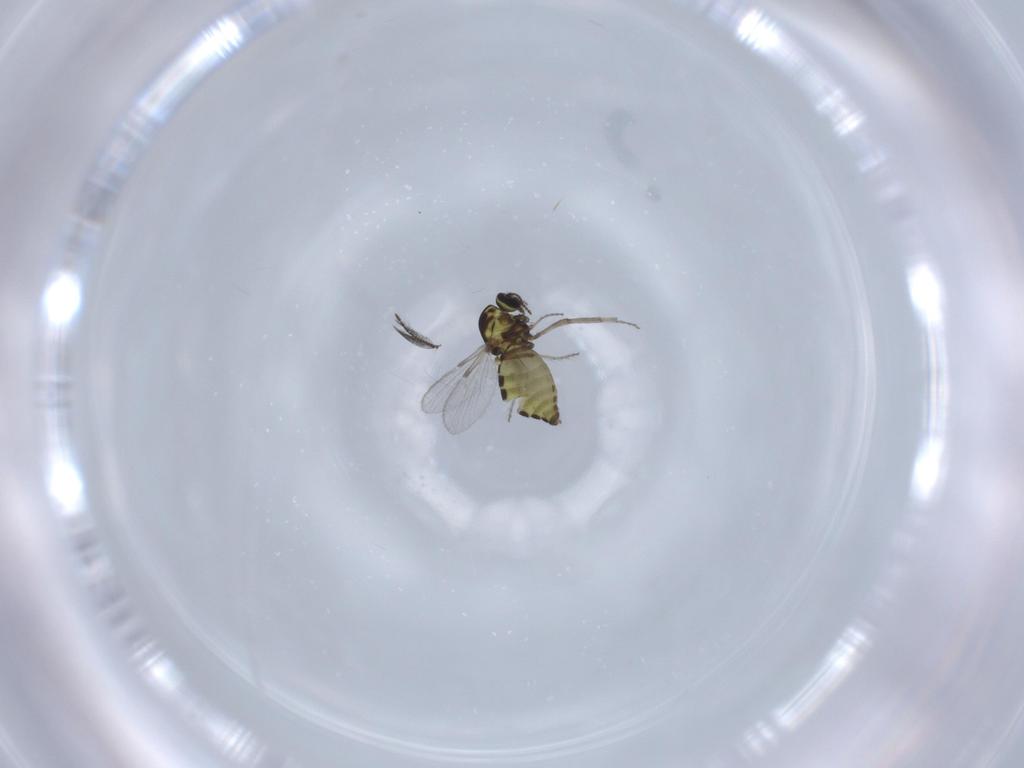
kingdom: Animalia
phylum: Arthropoda
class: Insecta
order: Diptera
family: Ceratopogonidae
